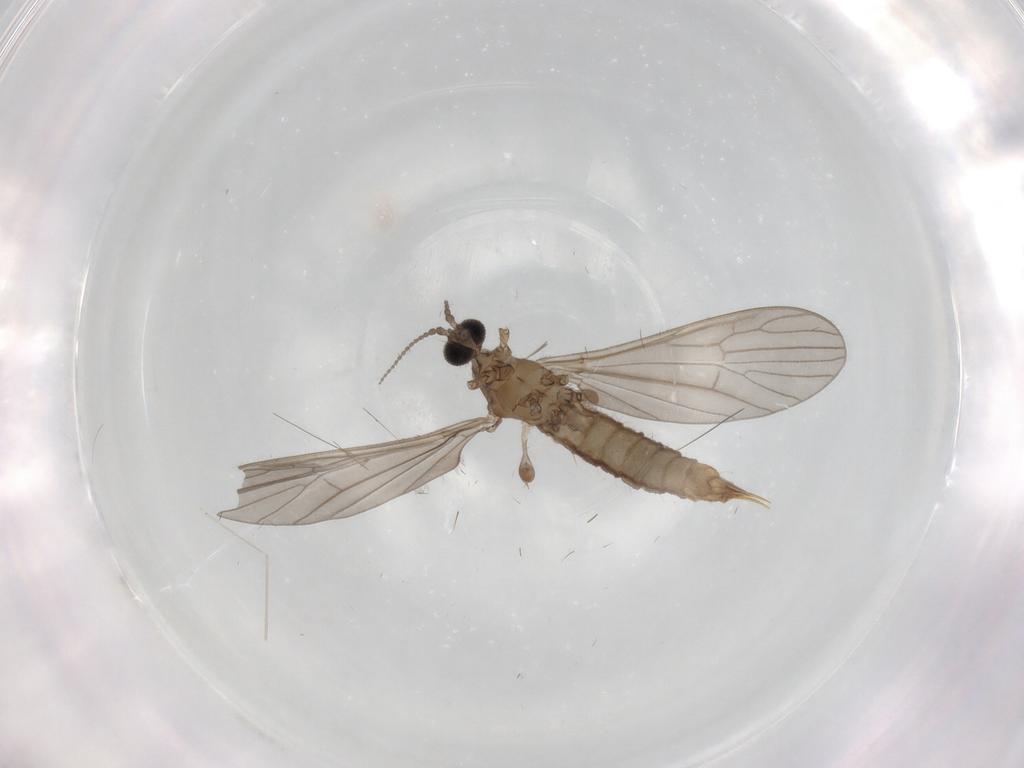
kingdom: Animalia
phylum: Arthropoda
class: Insecta
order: Diptera
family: Limoniidae
